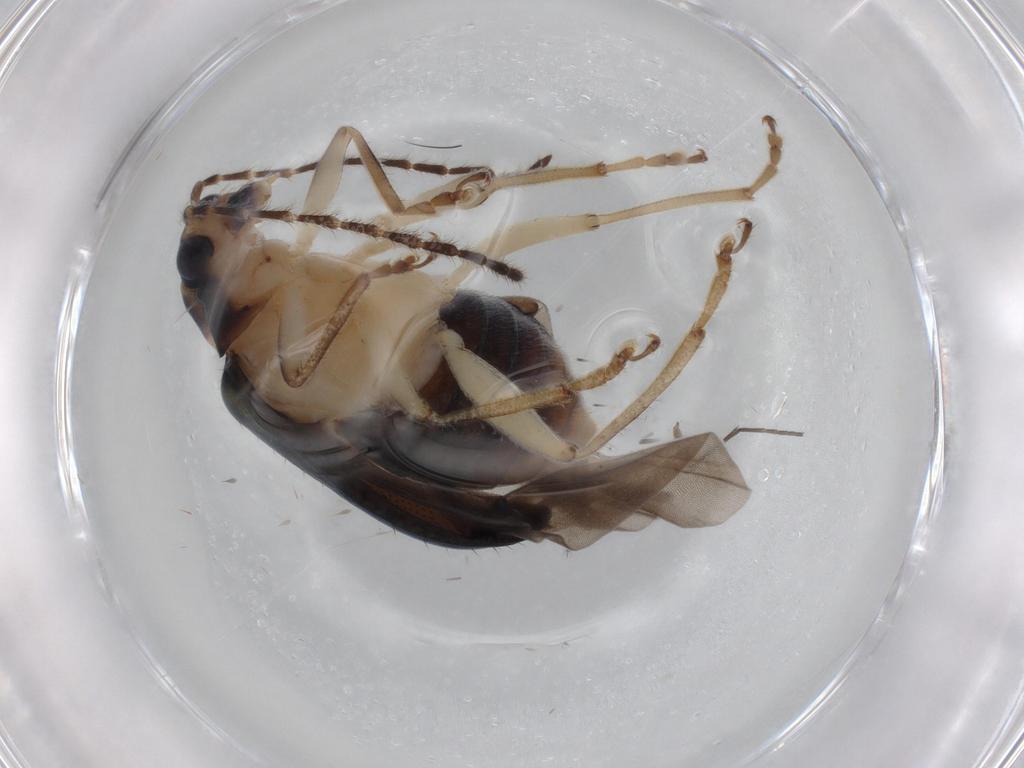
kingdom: Animalia
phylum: Arthropoda
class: Insecta
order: Coleoptera
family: Chrysomelidae
